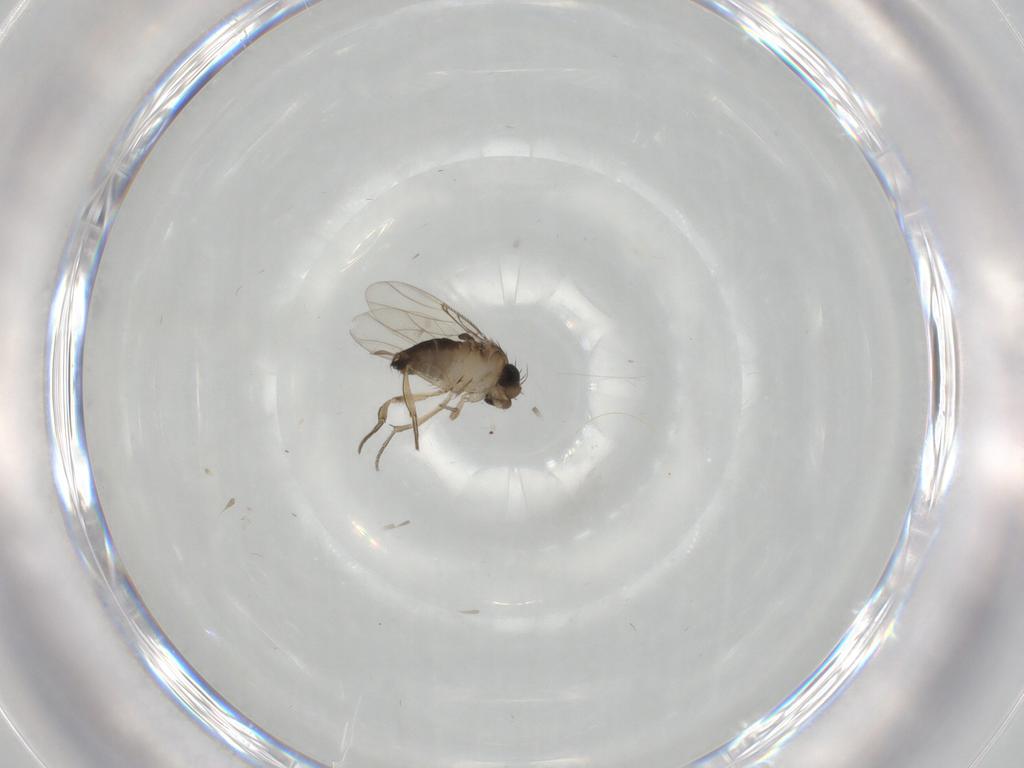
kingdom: Animalia
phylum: Arthropoda
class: Insecta
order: Diptera
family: Phoridae
